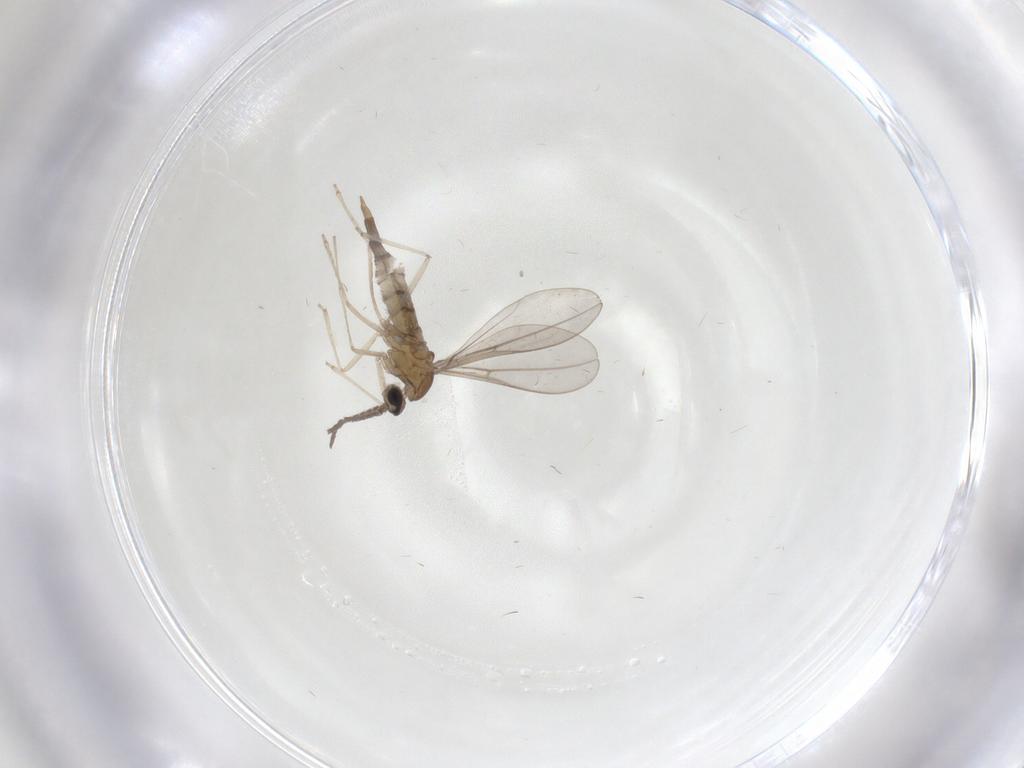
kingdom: Animalia
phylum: Arthropoda
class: Insecta
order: Diptera
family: Cecidomyiidae
